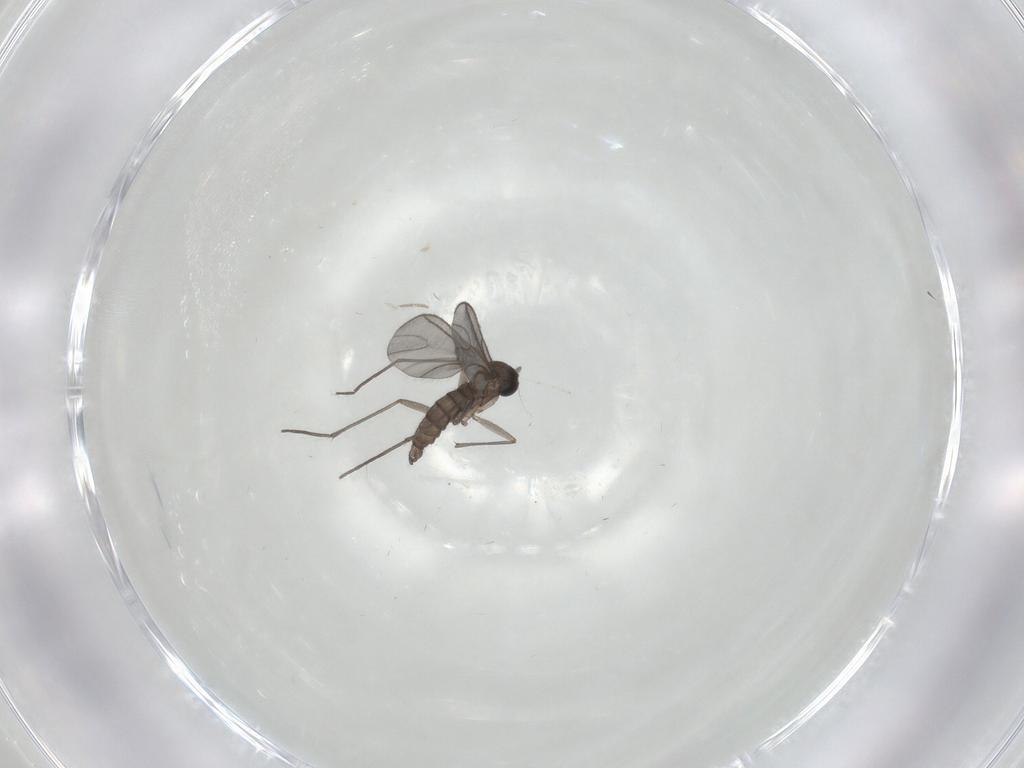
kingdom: Animalia
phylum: Arthropoda
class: Insecta
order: Diptera
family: Sciaridae
